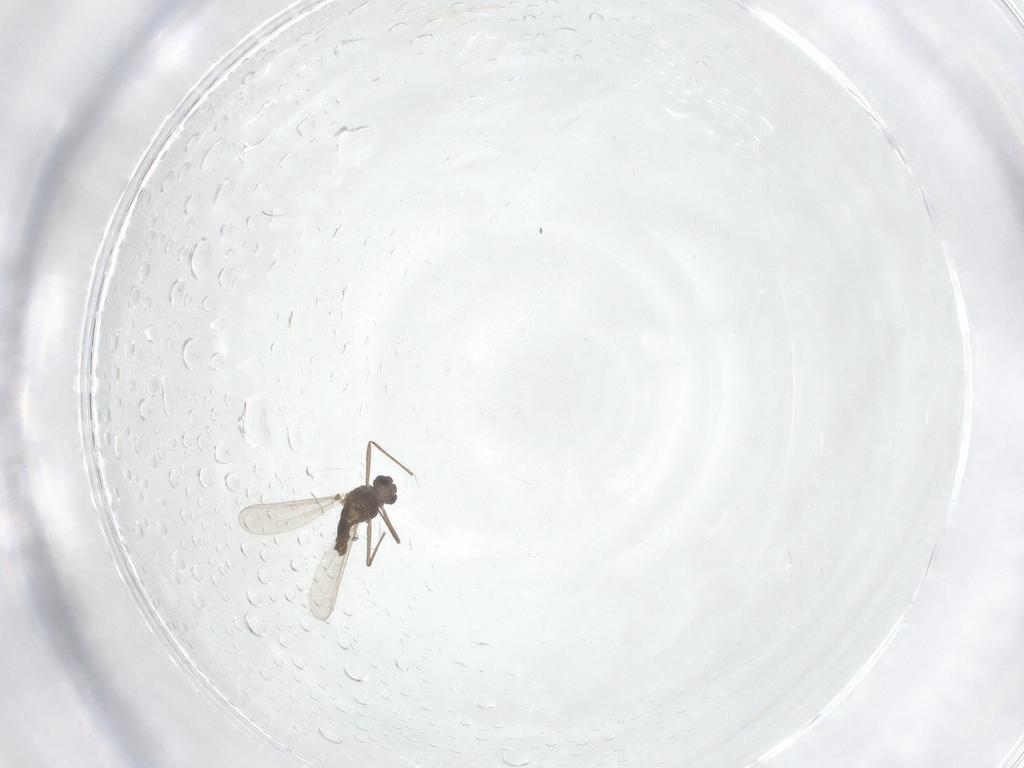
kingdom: Animalia
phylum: Arthropoda
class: Insecta
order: Diptera
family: Chironomidae
